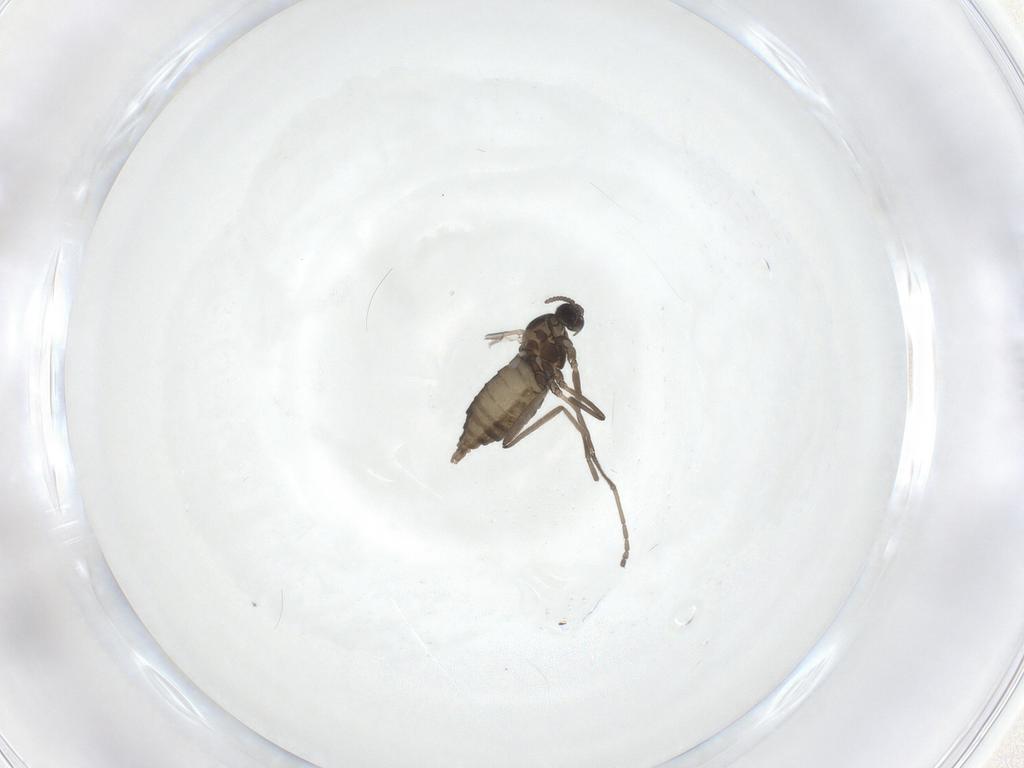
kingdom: Animalia
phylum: Arthropoda
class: Insecta
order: Diptera
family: Cecidomyiidae
